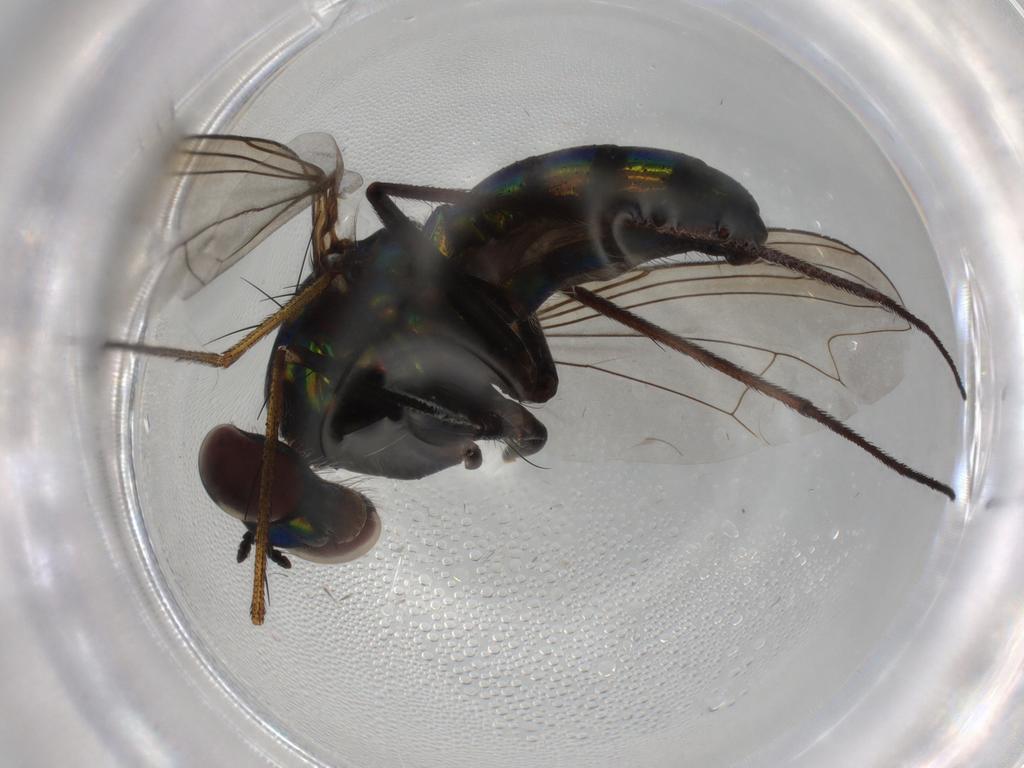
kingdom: Animalia
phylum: Arthropoda
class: Insecta
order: Diptera
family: Dolichopodidae
